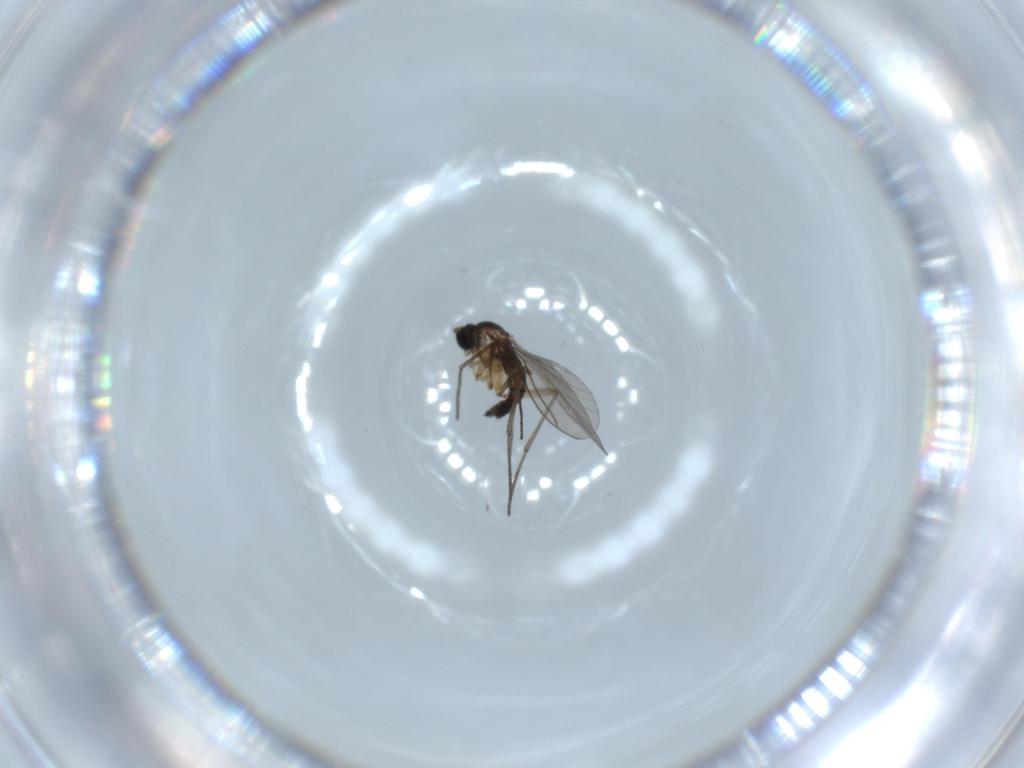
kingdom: Animalia
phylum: Arthropoda
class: Insecta
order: Diptera
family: Sciaridae
